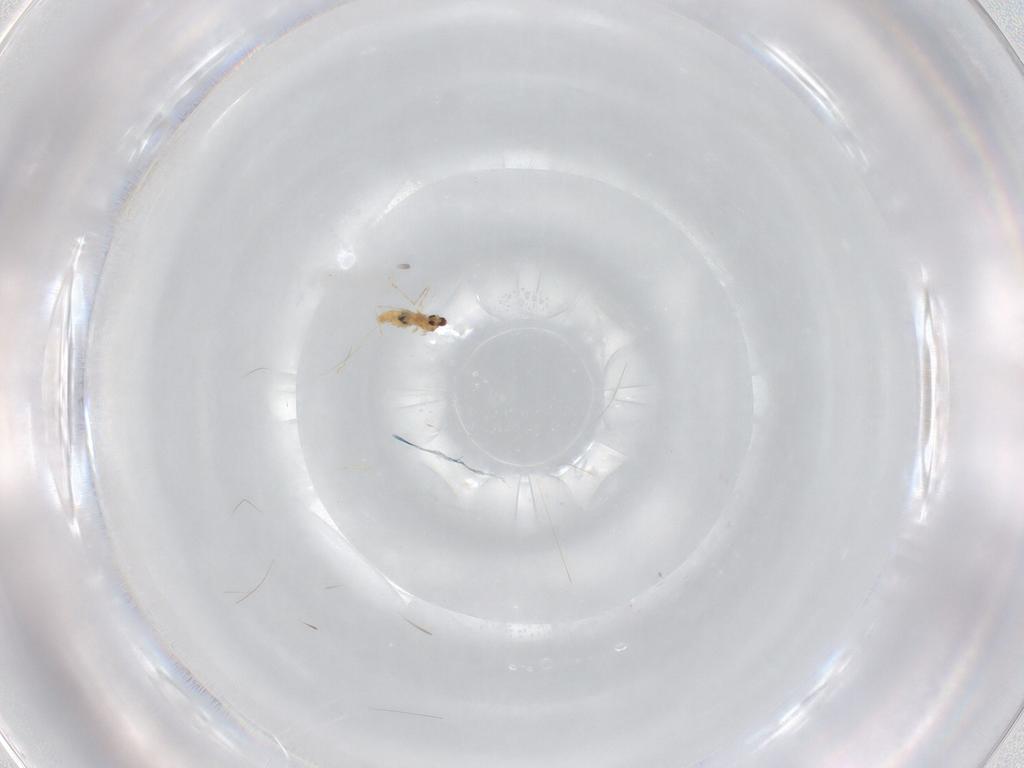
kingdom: Animalia
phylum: Arthropoda
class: Insecta
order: Diptera
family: Cecidomyiidae
